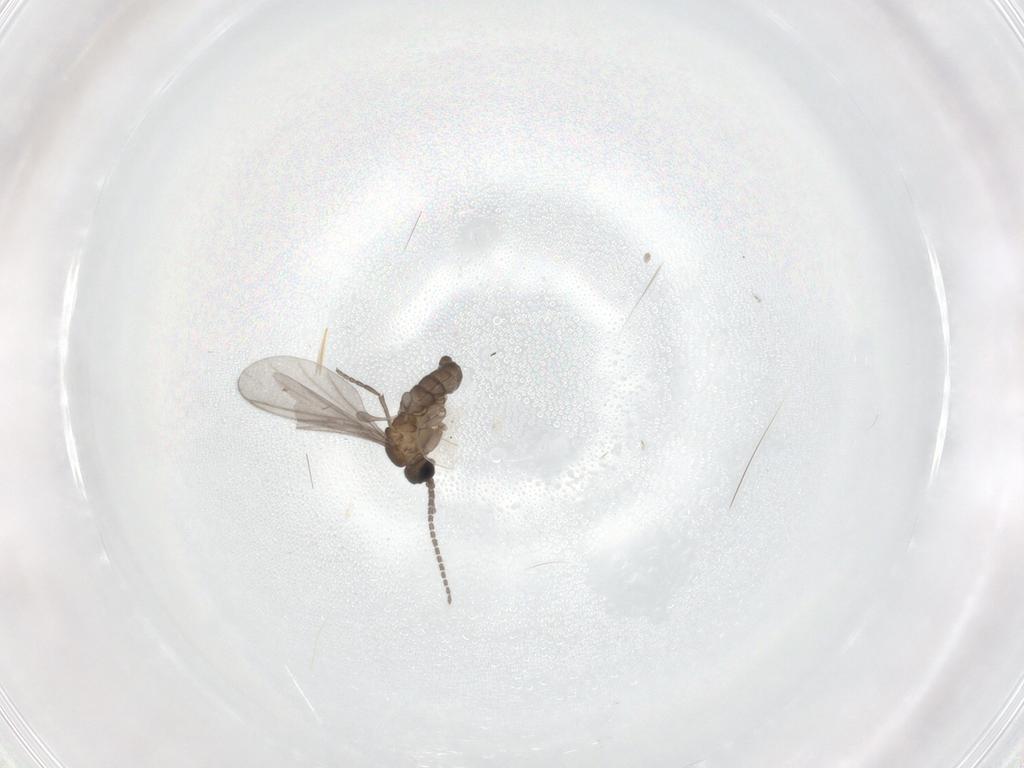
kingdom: Animalia
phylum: Arthropoda
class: Insecta
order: Diptera
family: Sciaridae
